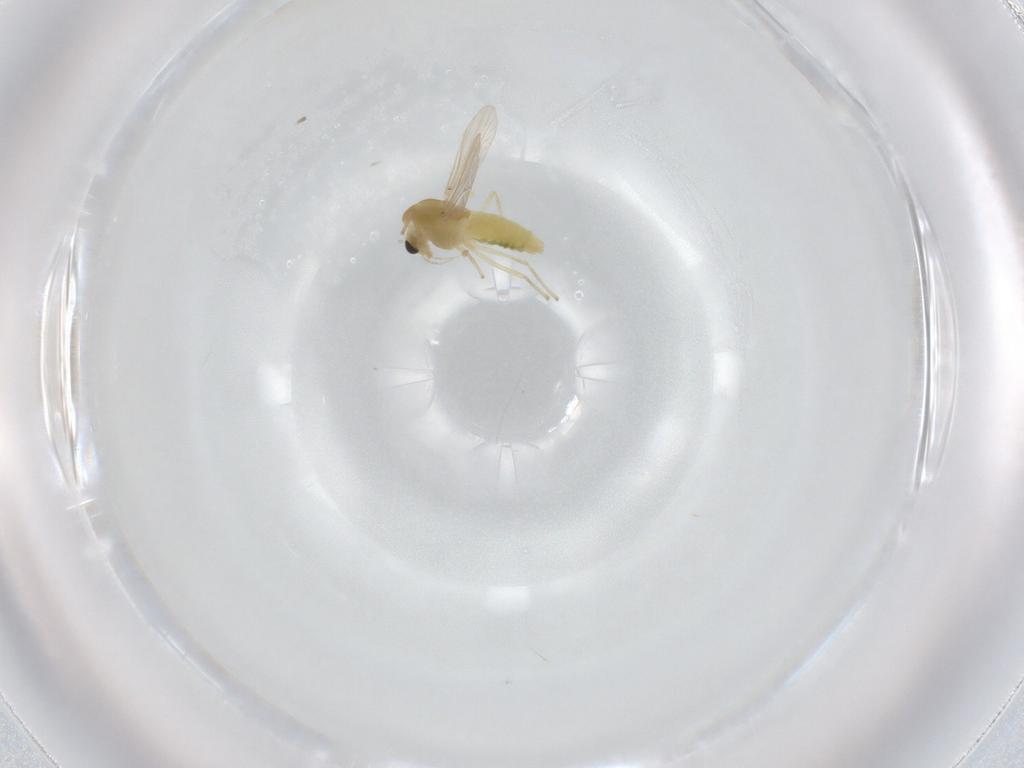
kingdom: Animalia
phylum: Arthropoda
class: Insecta
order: Diptera
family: Chironomidae
